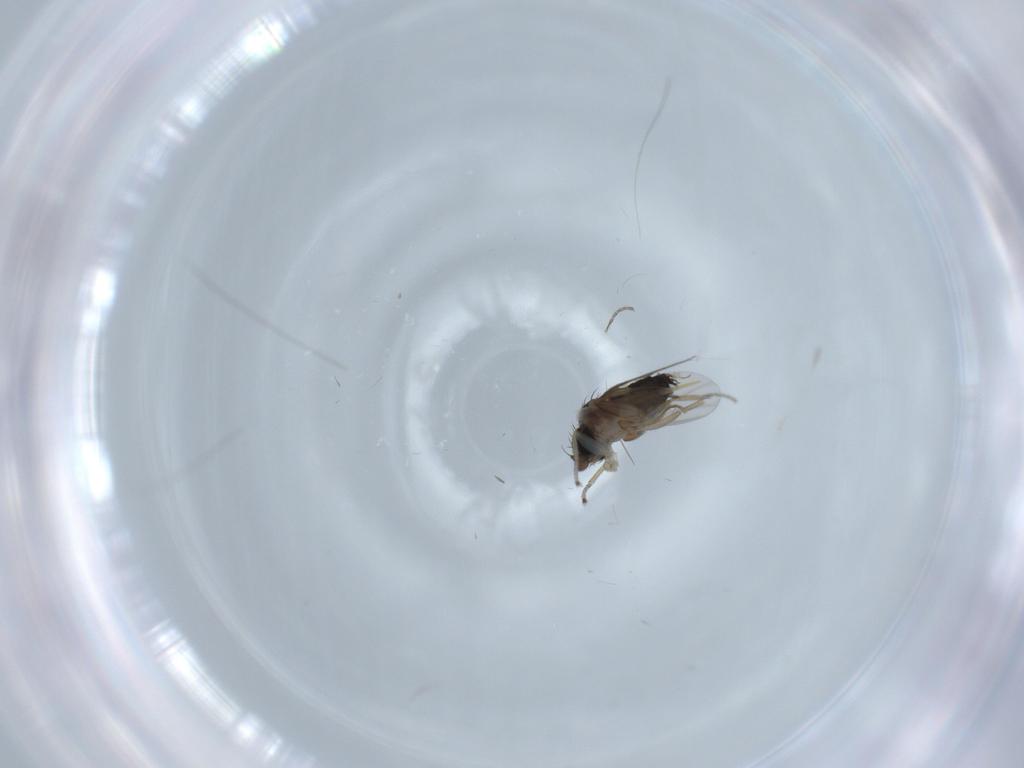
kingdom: Animalia
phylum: Arthropoda
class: Insecta
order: Diptera
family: Phoridae
